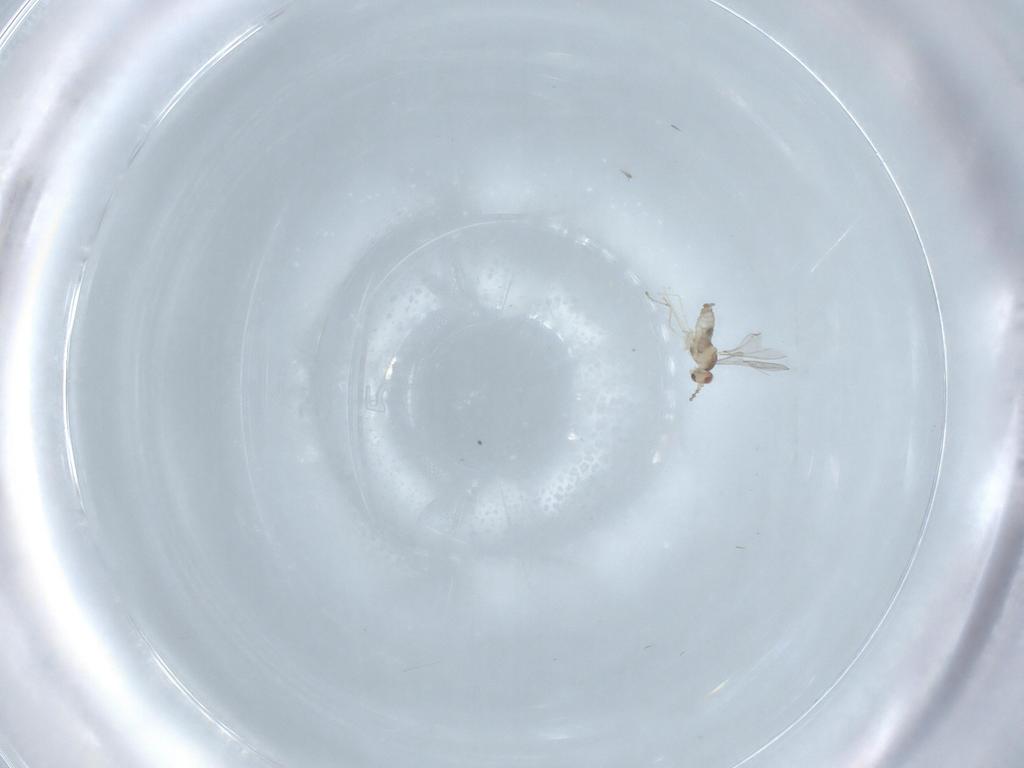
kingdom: Animalia
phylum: Arthropoda
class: Insecta
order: Diptera
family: Cecidomyiidae
